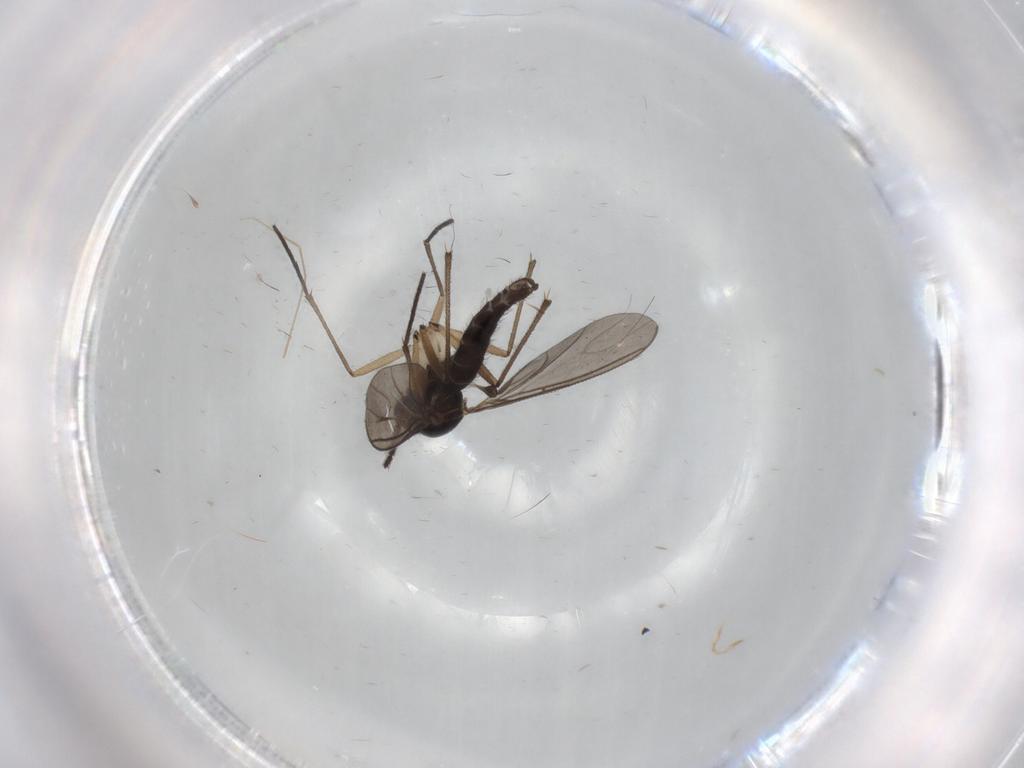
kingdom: Animalia
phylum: Arthropoda
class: Insecta
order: Diptera
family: Sciaridae
